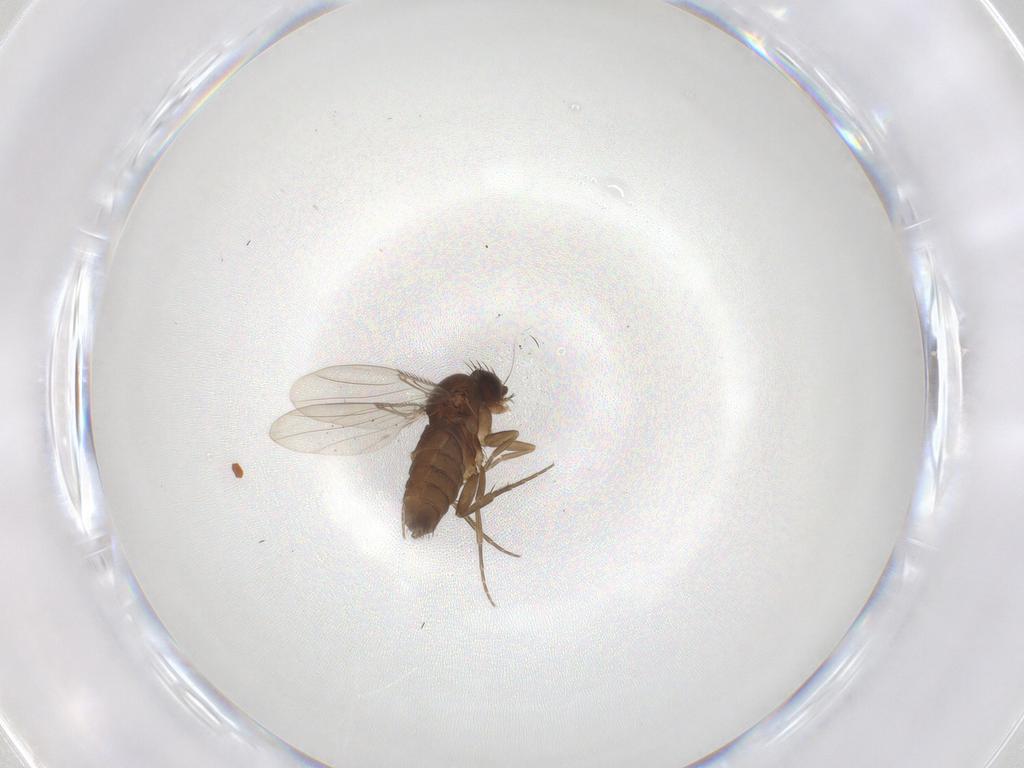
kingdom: Animalia
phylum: Arthropoda
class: Insecta
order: Diptera
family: Phoridae
